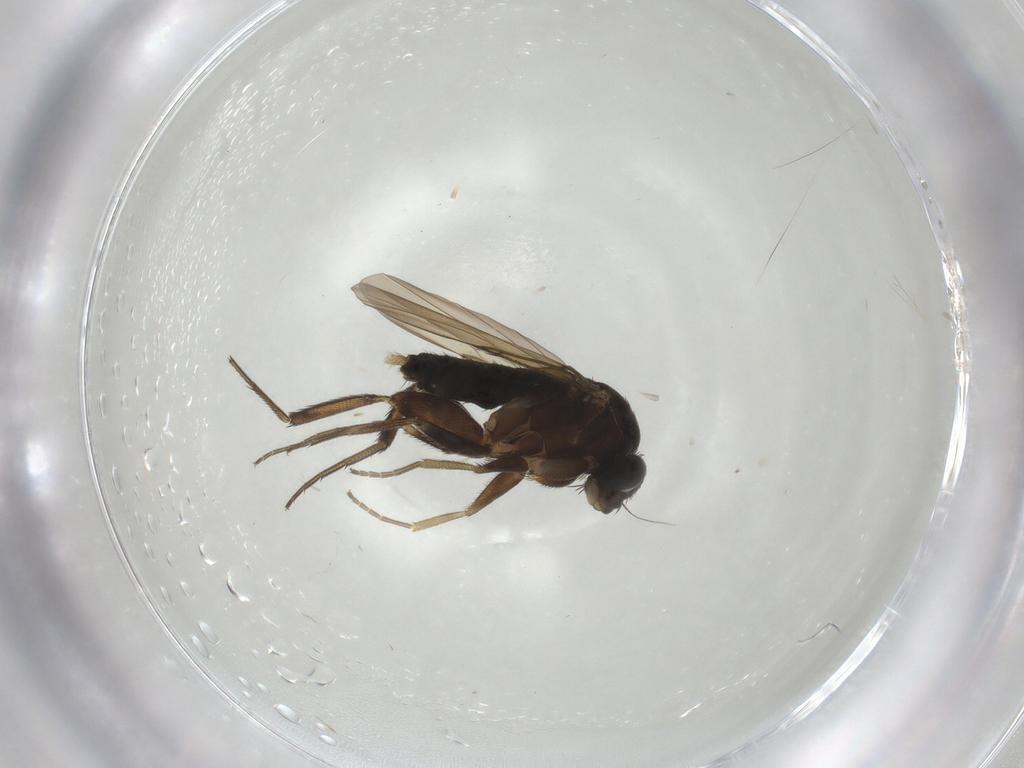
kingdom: Animalia
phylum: Arthropoda
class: Insecta
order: Diptera
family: Phoridae
